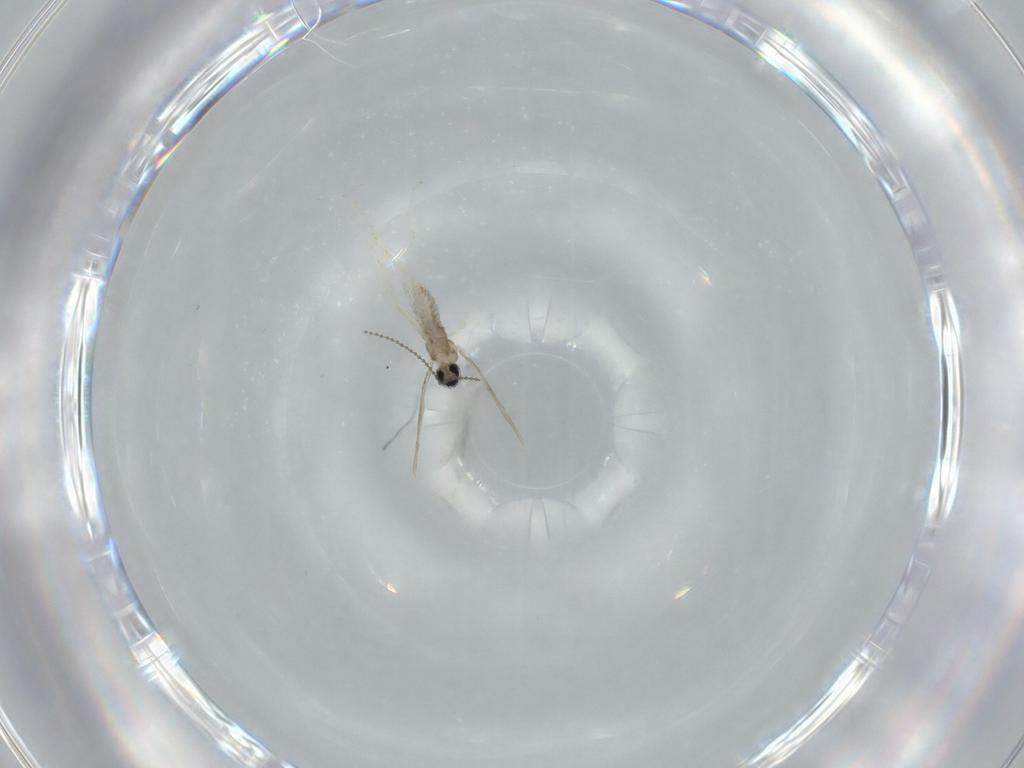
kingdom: Animalia
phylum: Arthropoda
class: Insecta
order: Diptera
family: Cecidomyiidae
